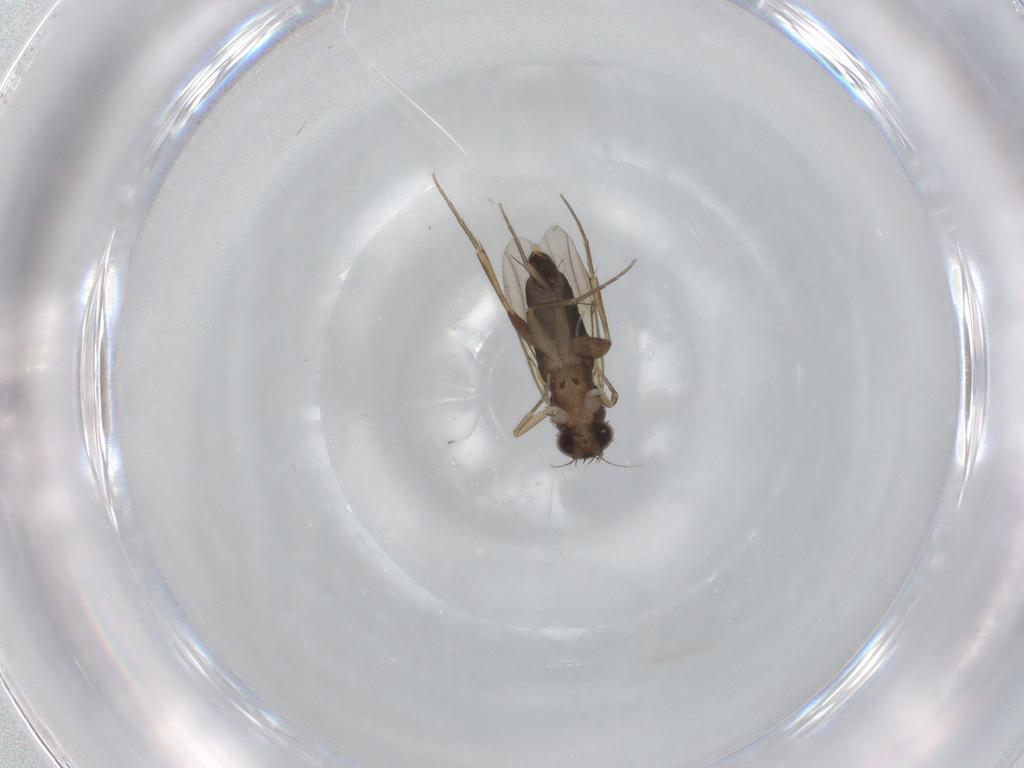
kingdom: Animalia
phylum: Arthropoda
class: Insecta
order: Diptera
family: Phoridae
